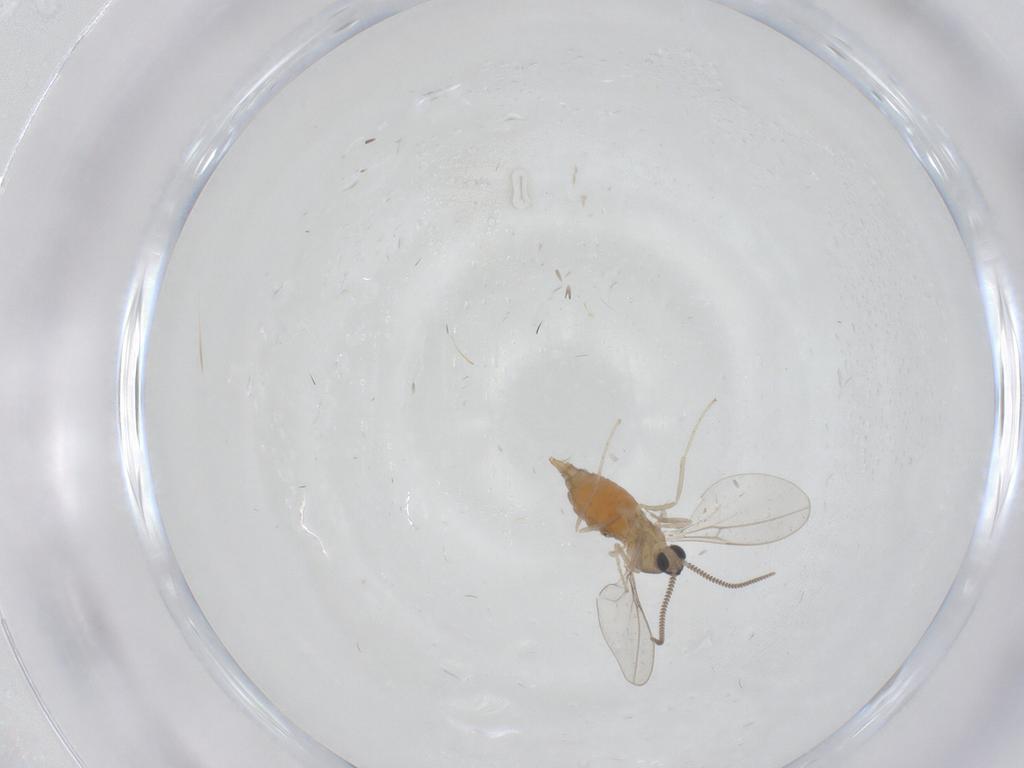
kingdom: Animalia
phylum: Arthropoda
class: Insecta
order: Diptera
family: Cecidomyiidae
